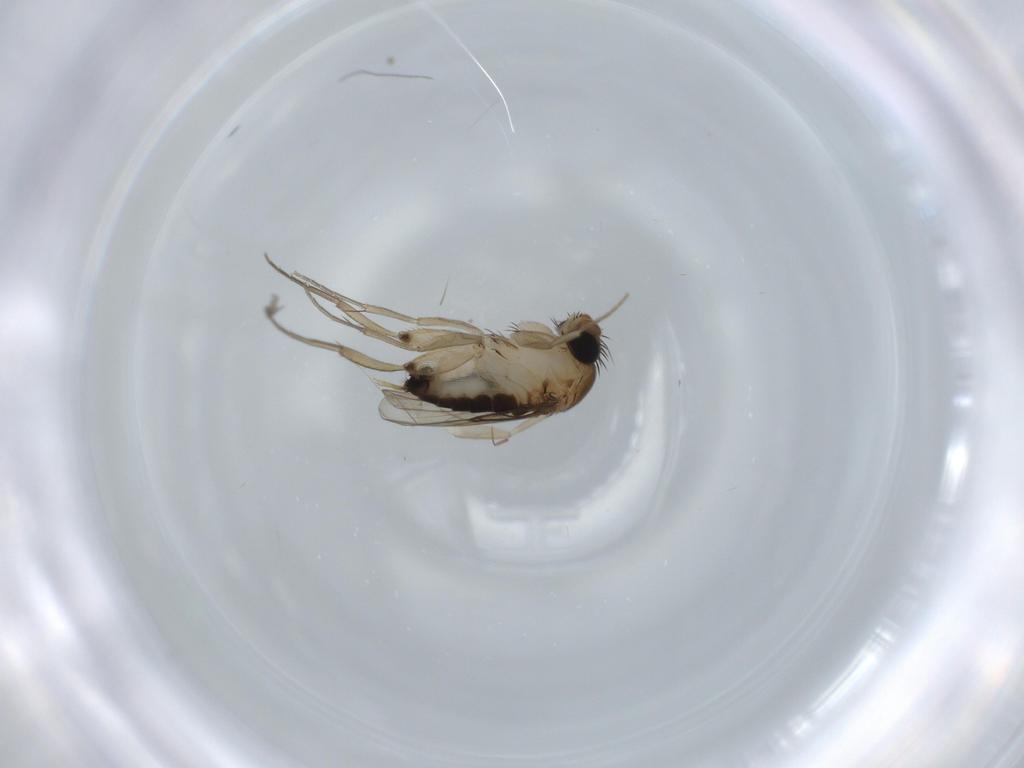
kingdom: Animalia
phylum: Arthropoda
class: Insecta
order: Diptera
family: Phoridae
